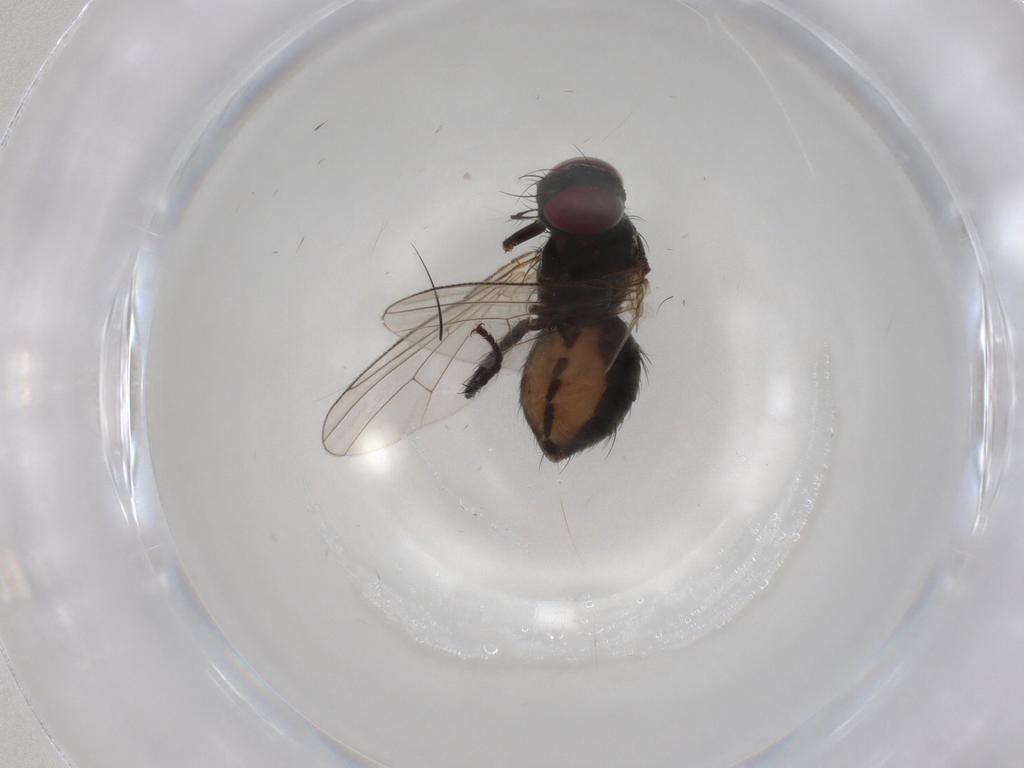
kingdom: Animalia
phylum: Arthropoda
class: Insecta
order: Diptera
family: Muscidae
